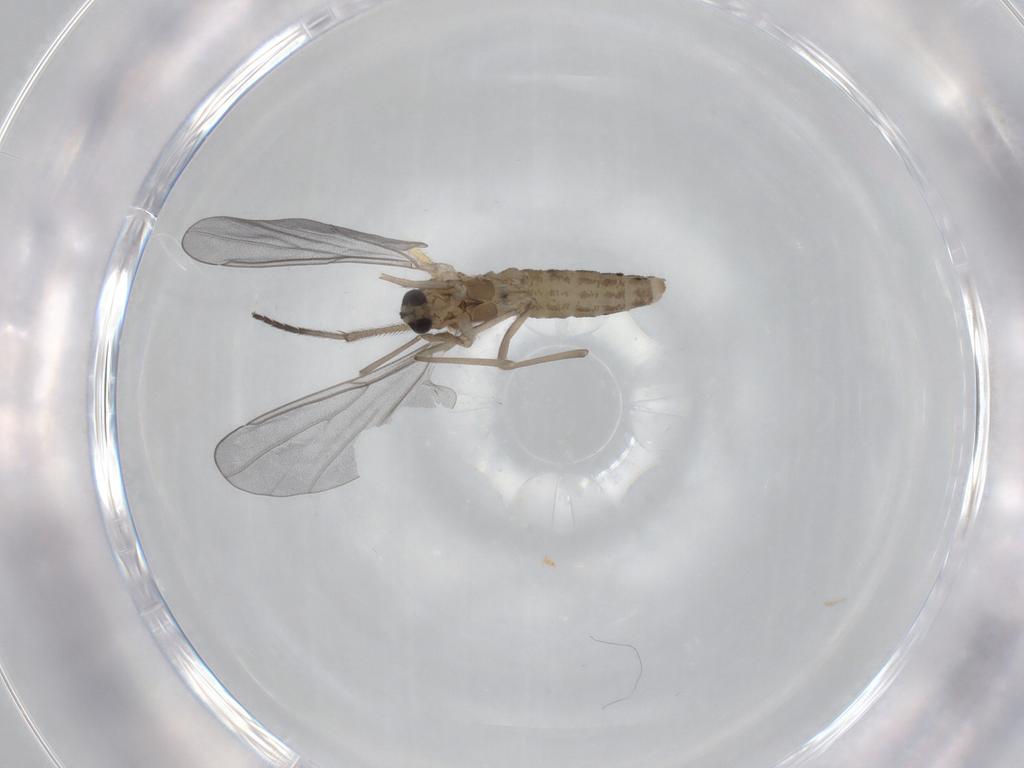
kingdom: Animalia
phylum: Arthropoda
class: Insecta
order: Diptera
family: Cecidomyiidae
